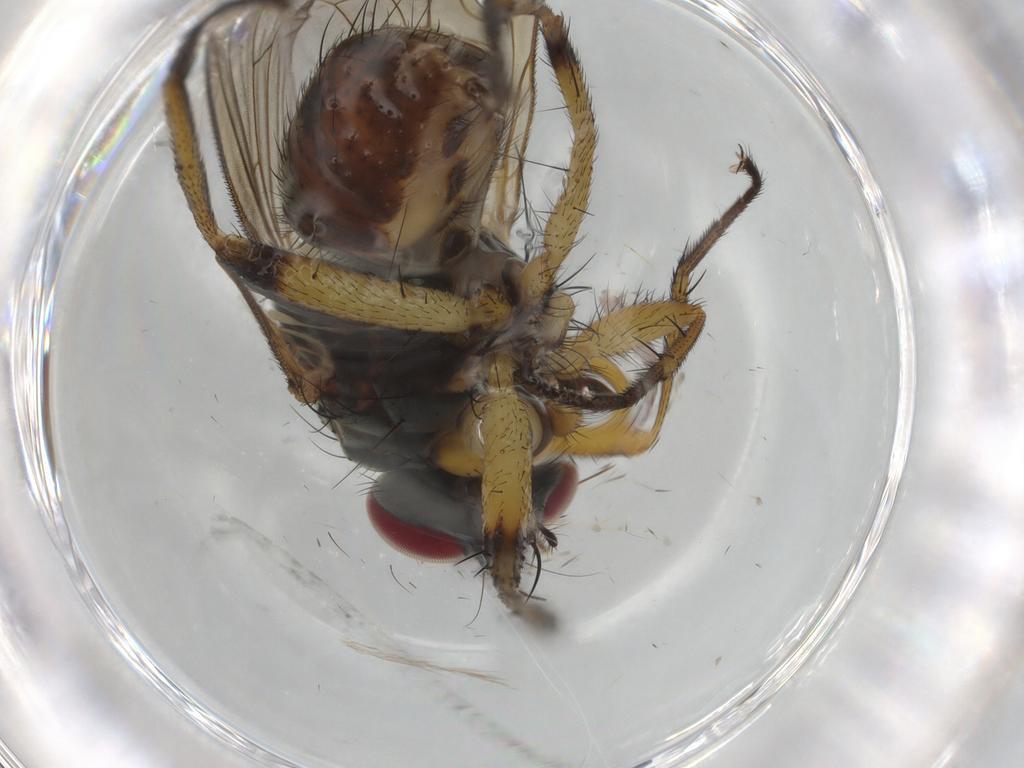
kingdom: Animalia
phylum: Arthropoda
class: Insecta
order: Diptera
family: Muscidae
